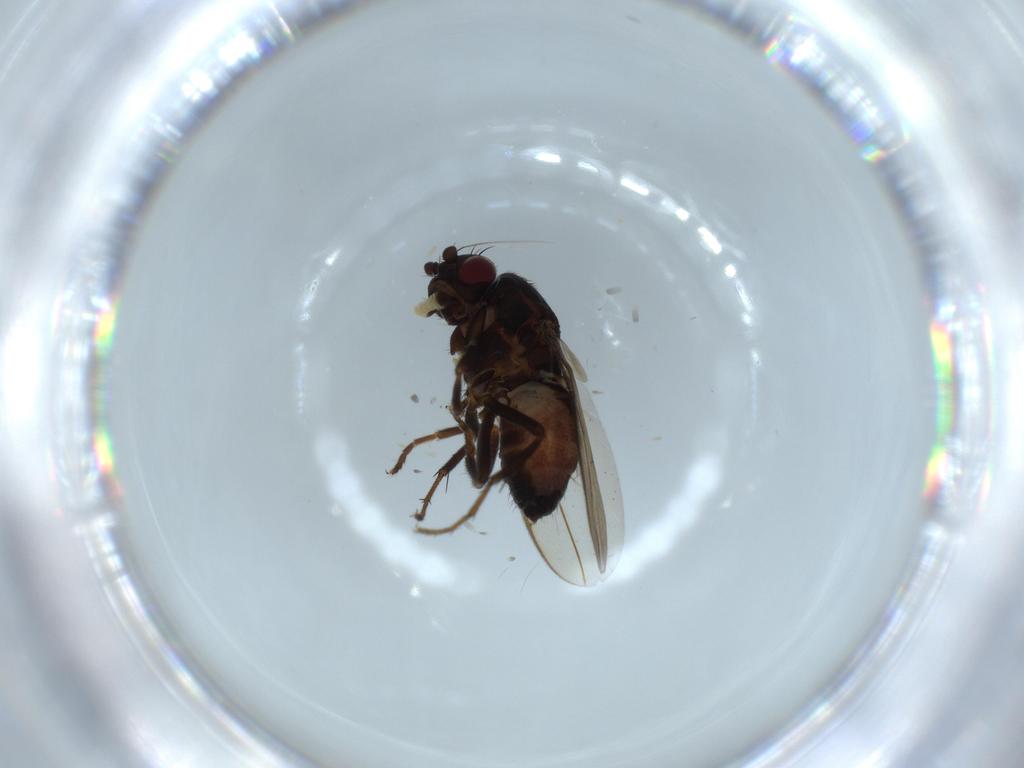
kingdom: Animalia
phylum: Arthropoda
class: Insecta
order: Diptera
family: Sphaeroceridae
